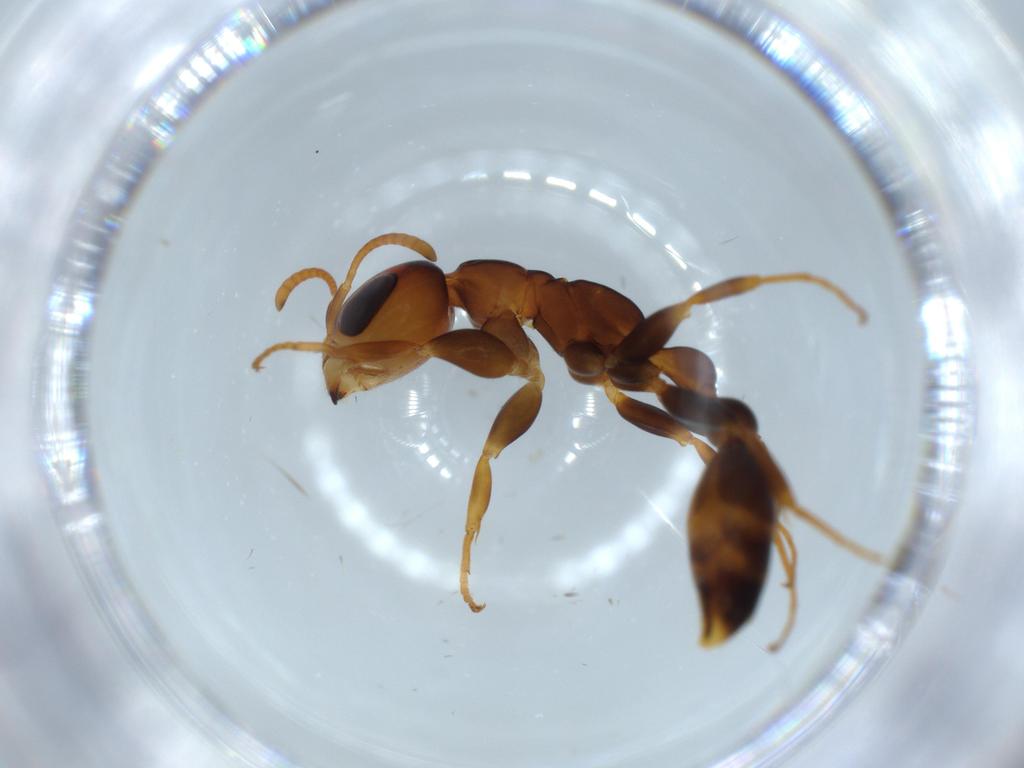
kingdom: Animalia
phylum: Arthropoda
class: Insecta
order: Hymenoptera
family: Formicidae
